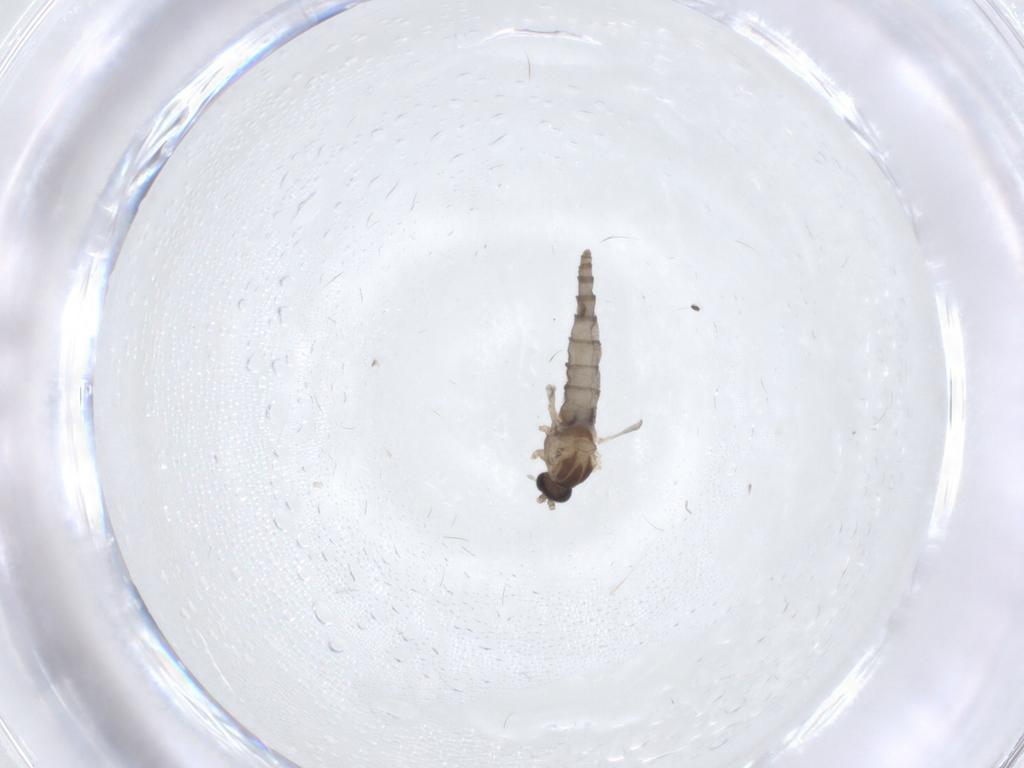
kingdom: Animalia
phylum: Arthropoda
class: Insecta
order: Diptera
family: Cecidomyiidae
